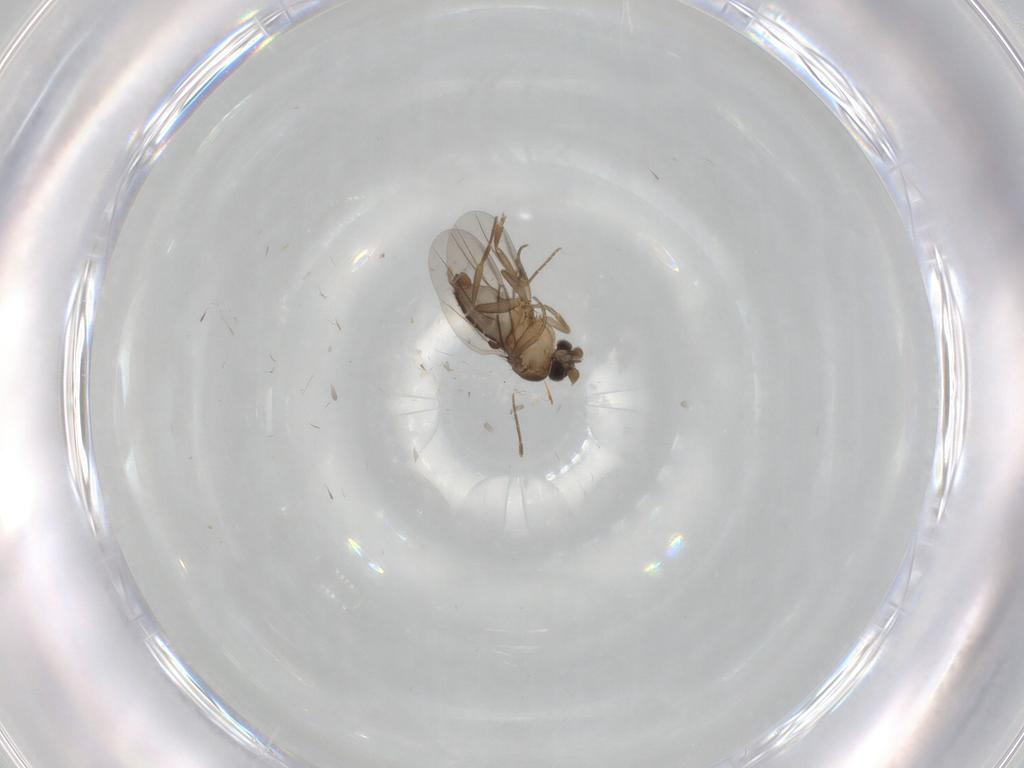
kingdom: Animalia
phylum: Arthropoda
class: Insecta
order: Diptera
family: Phoridae
